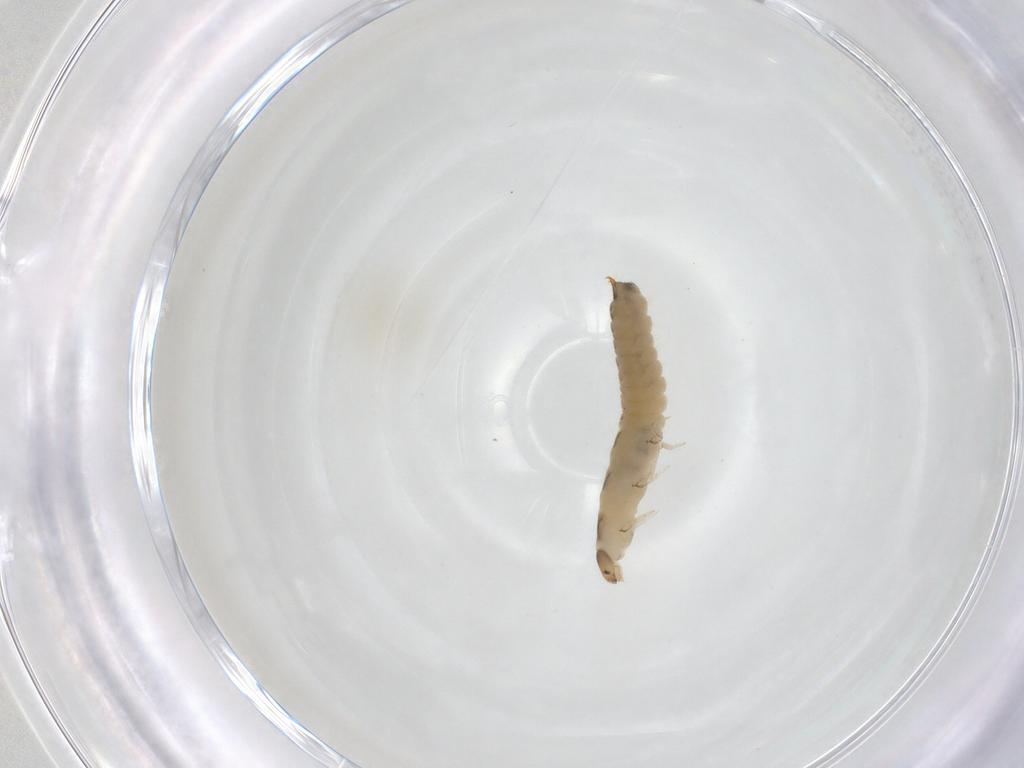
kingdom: Animalia
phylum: Arthropoda
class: Insecta
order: Coleoptera
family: Melyridae
